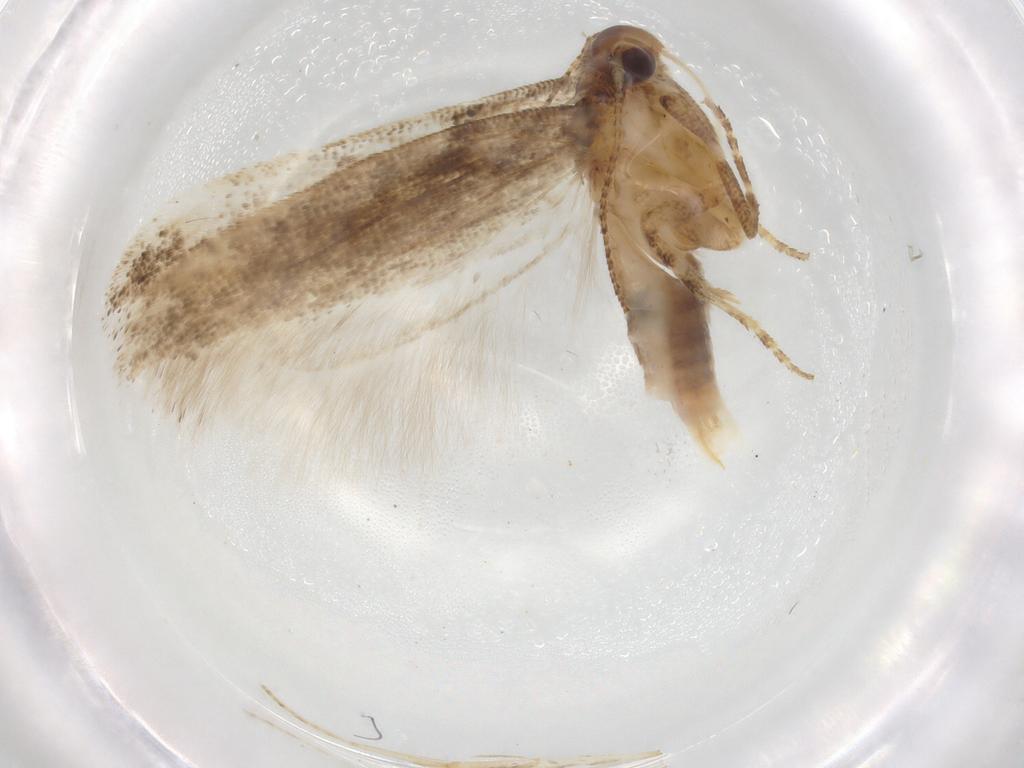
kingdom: Animalia
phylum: Arthropoda
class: Insecta
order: Lepidoptera
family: Gelechiidae
